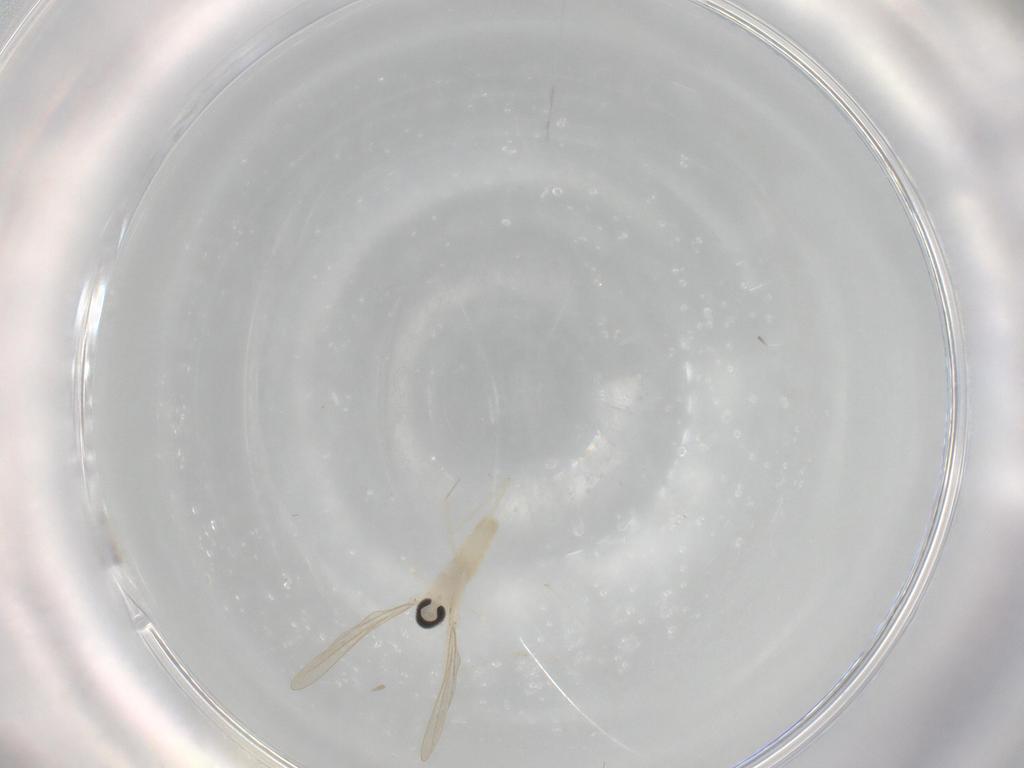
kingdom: Animalia
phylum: Arthropoda
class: Insecta
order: Diptera
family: Cecidomyiidae
